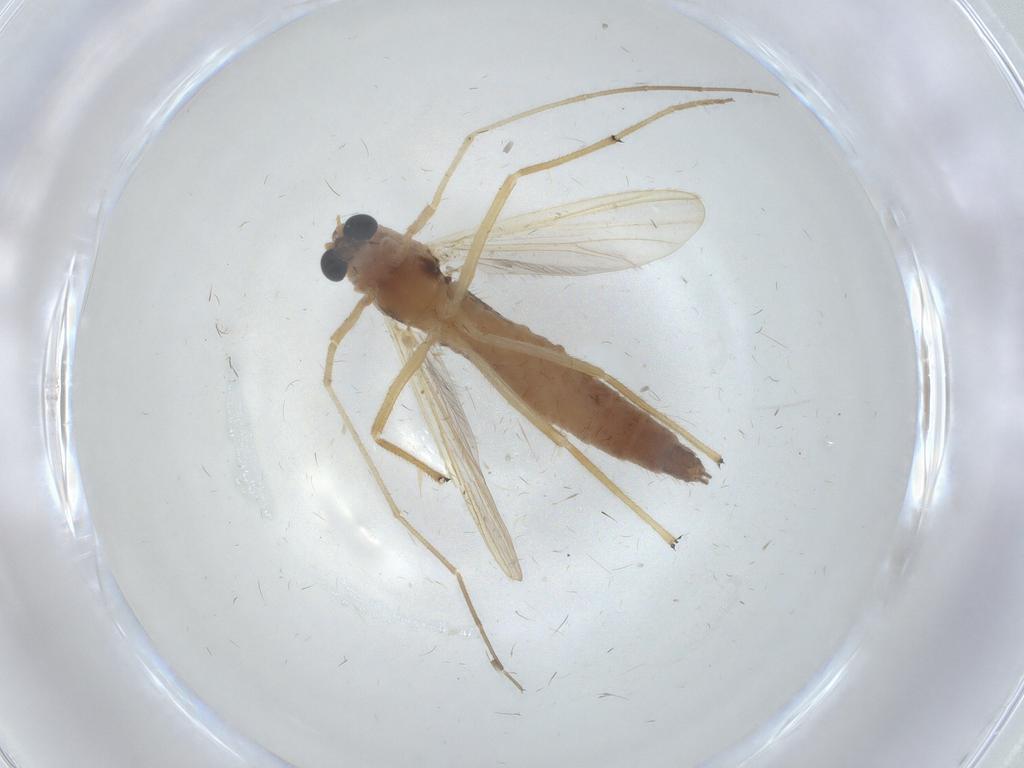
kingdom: Animalia
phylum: Arthropoda
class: Insecta
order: Diptera
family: Chironomidae
